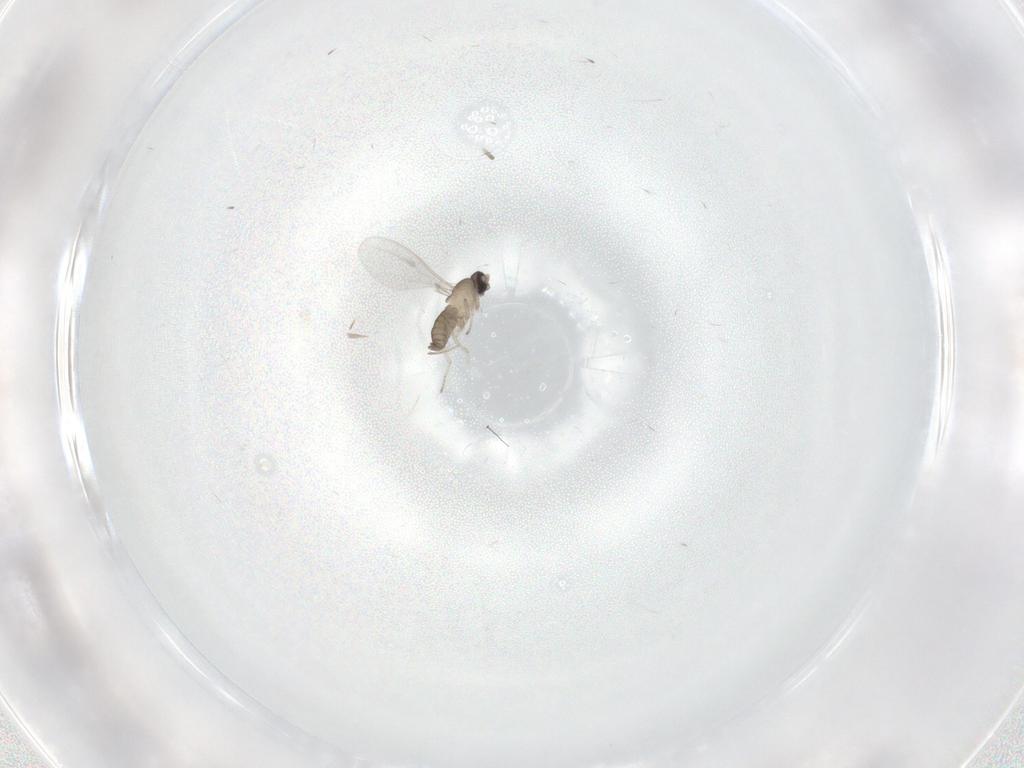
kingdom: Animalia
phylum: Arthropoda
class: Insecta
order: Diptera
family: Cecidomyiidae
